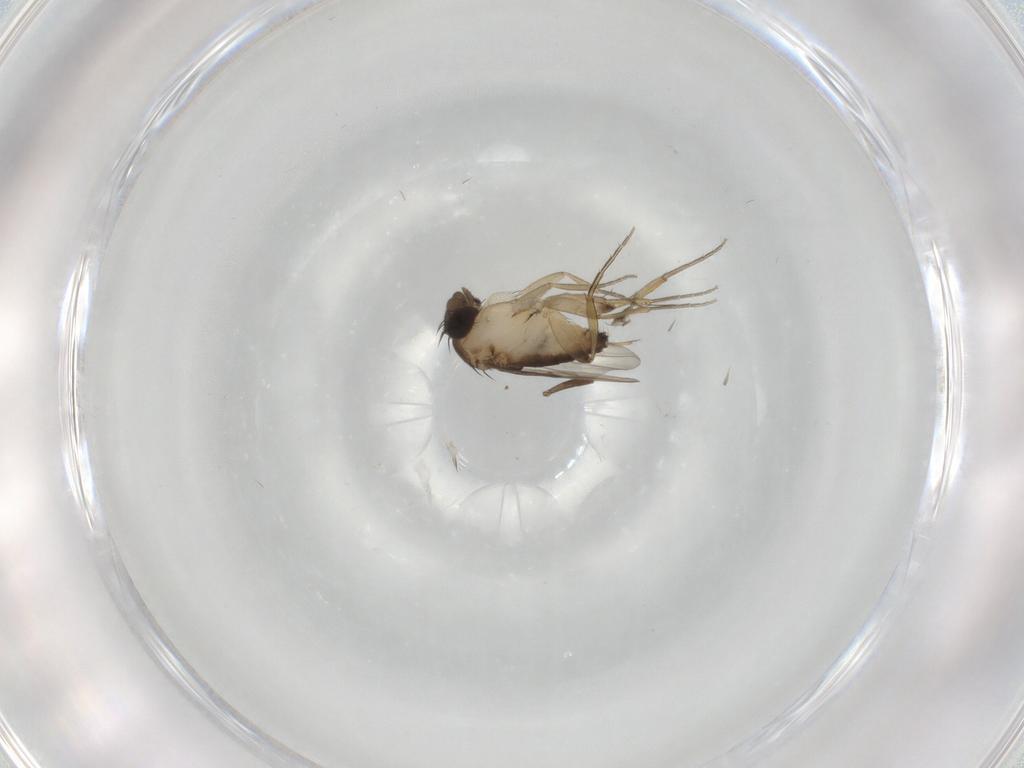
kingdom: Animalia
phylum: Arthropoda
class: Insecta
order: Diptera
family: Phoridae
